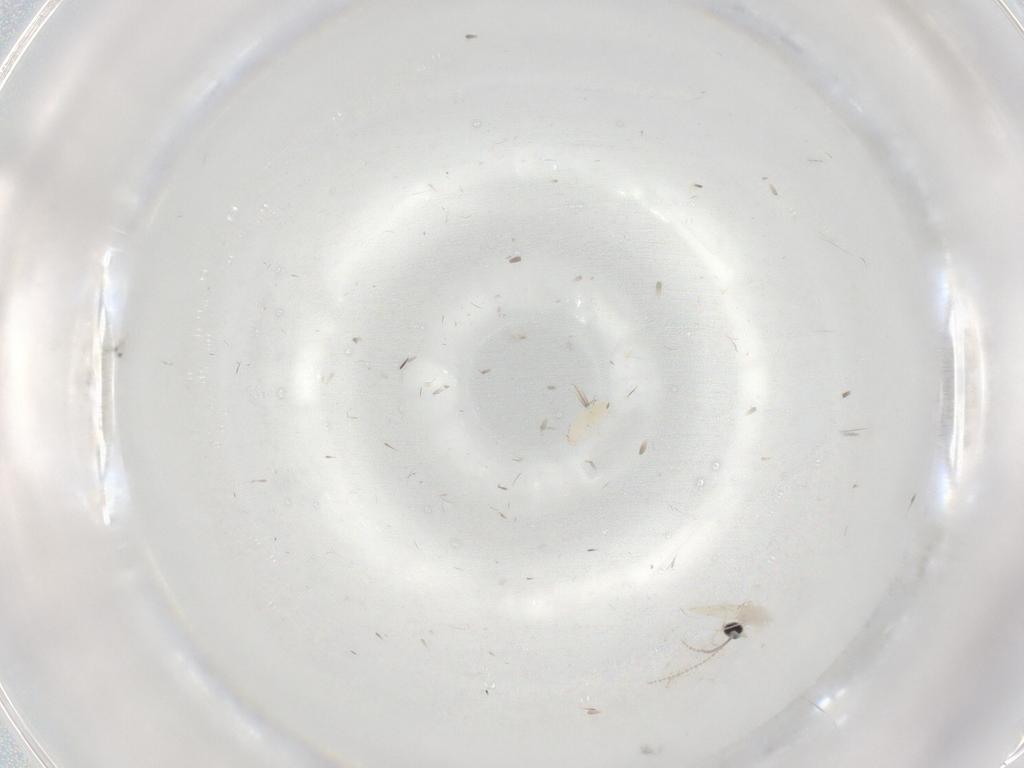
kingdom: Animalia
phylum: Arthropoda
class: Insecta
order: Diptera
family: Cecidomyiidae
